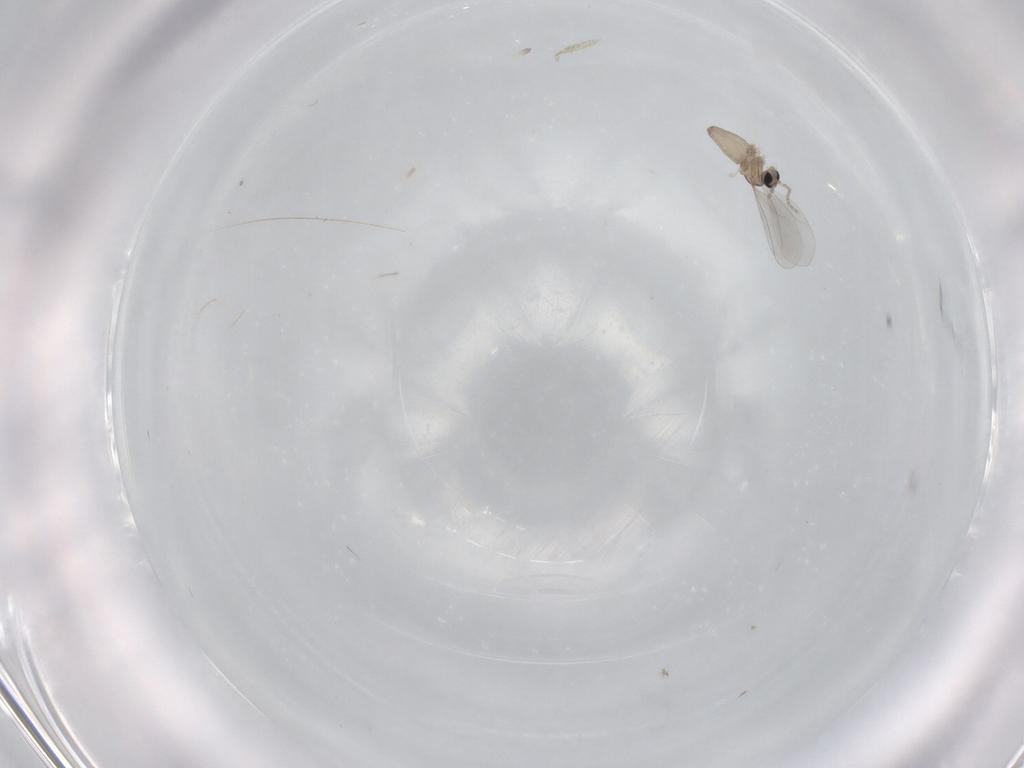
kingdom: Animalia
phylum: Arthropoda
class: Insecta
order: Diptera
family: Cecidomyiidae
